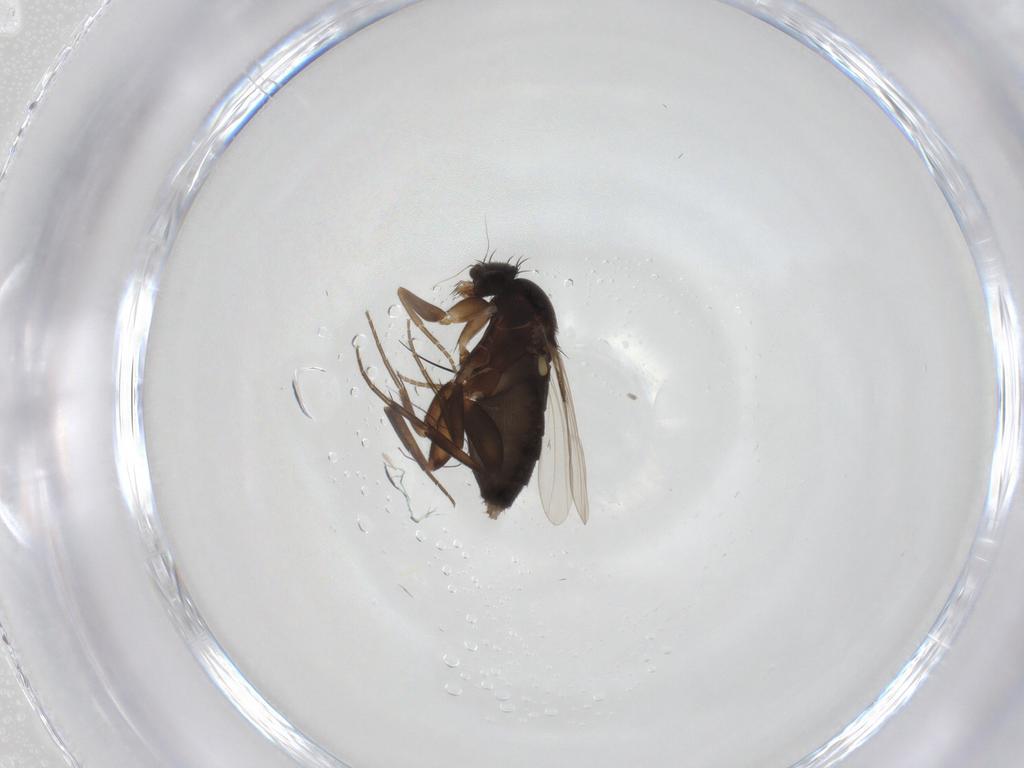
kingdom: Animalia
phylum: Arthropoda
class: Insecta
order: Diptera
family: Phoridae
